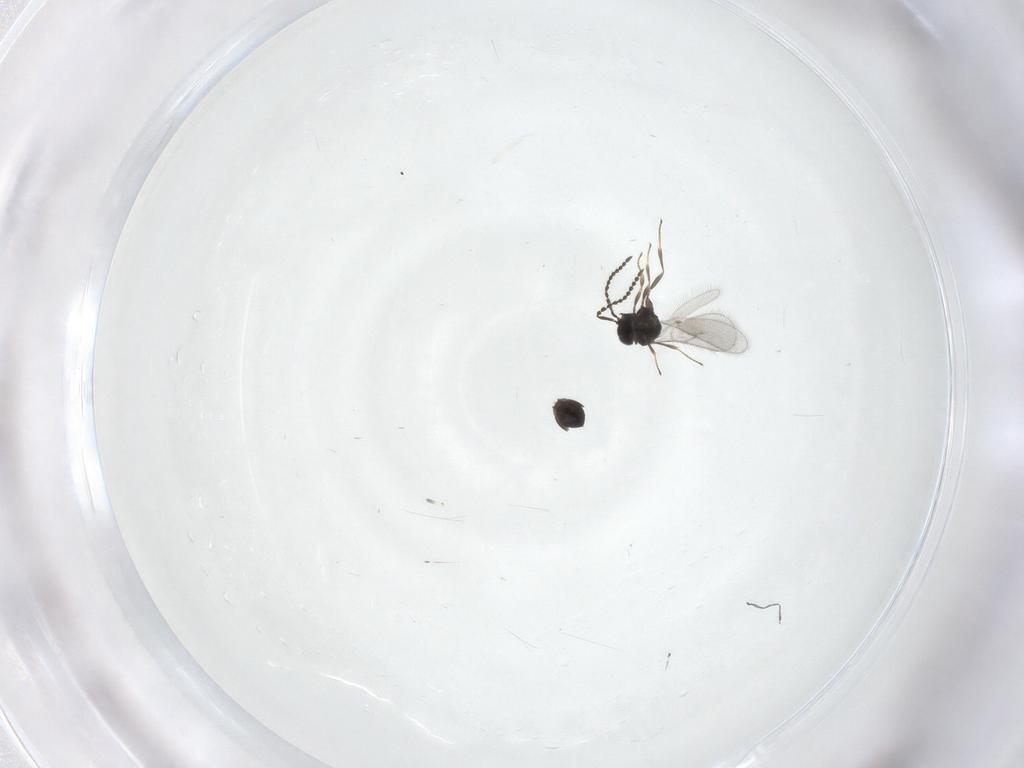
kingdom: Animalia
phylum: Arthropoda
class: Insecta
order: Hymenoptera
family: Scelionidae
